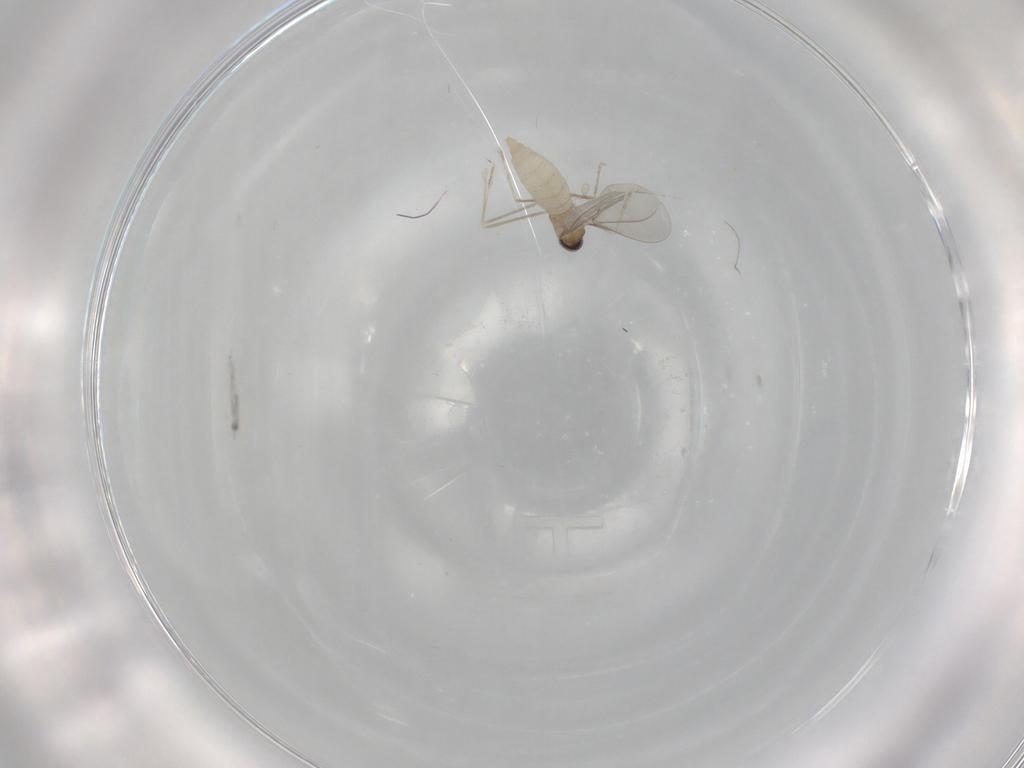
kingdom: Animalia
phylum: Arthropoda
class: Insecta
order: Diptera
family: Ceratopogonidae
